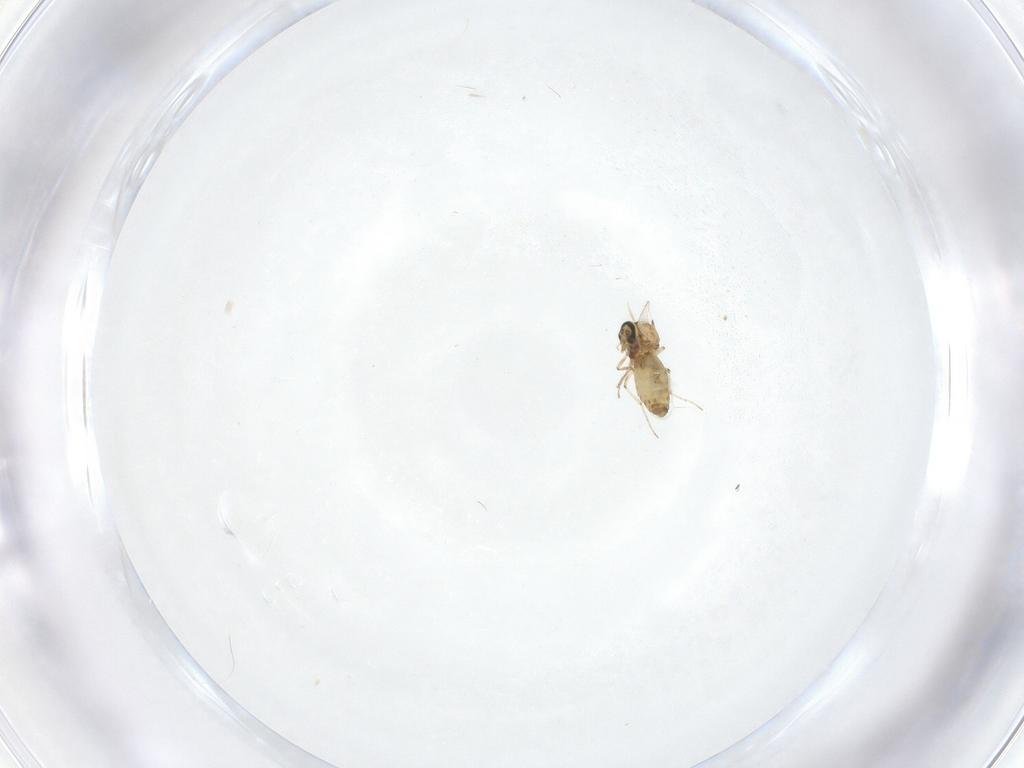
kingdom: Animalia
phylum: Arthropoda
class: Insecta
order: Diptera
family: Ceratopogonidae
